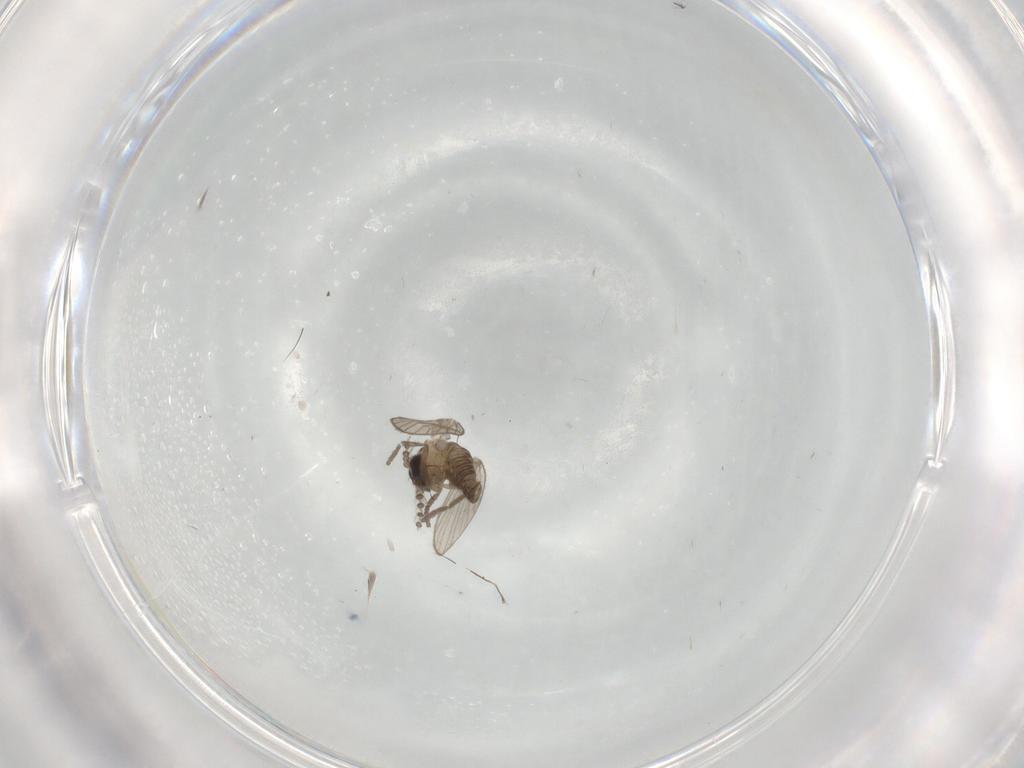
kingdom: Animalia
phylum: Arthropoda
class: Insecta
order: Diptera
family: Psychodidae
